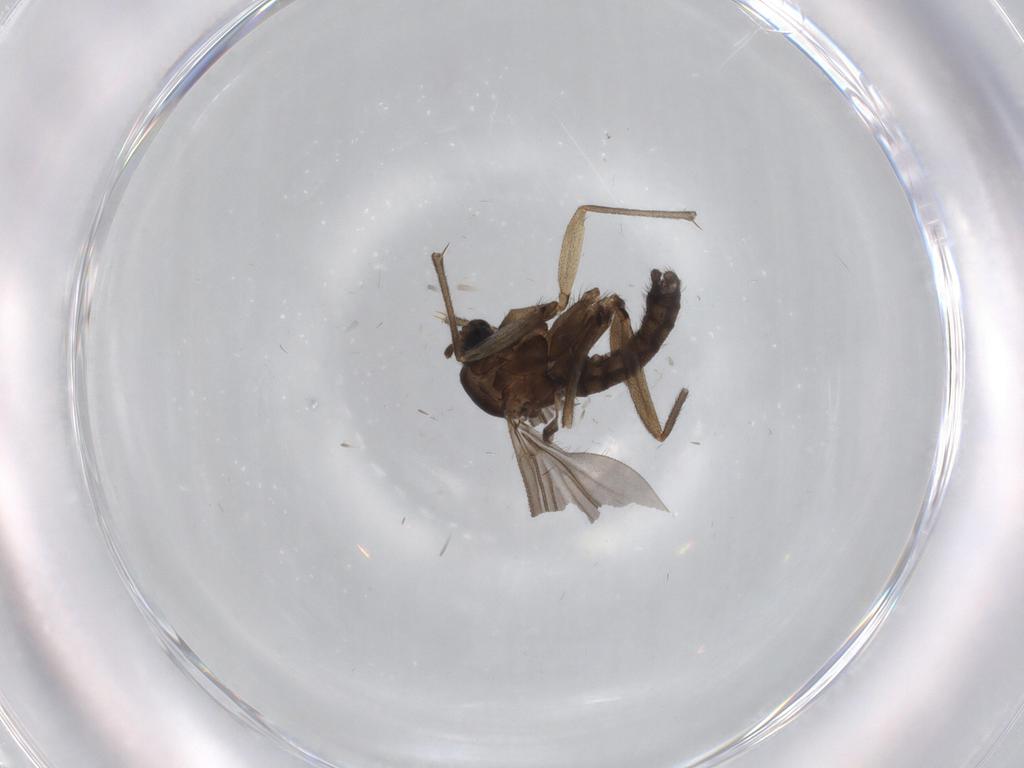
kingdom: Animalia
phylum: Arthropoda
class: Insecta
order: Diptera
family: Sciaridae
